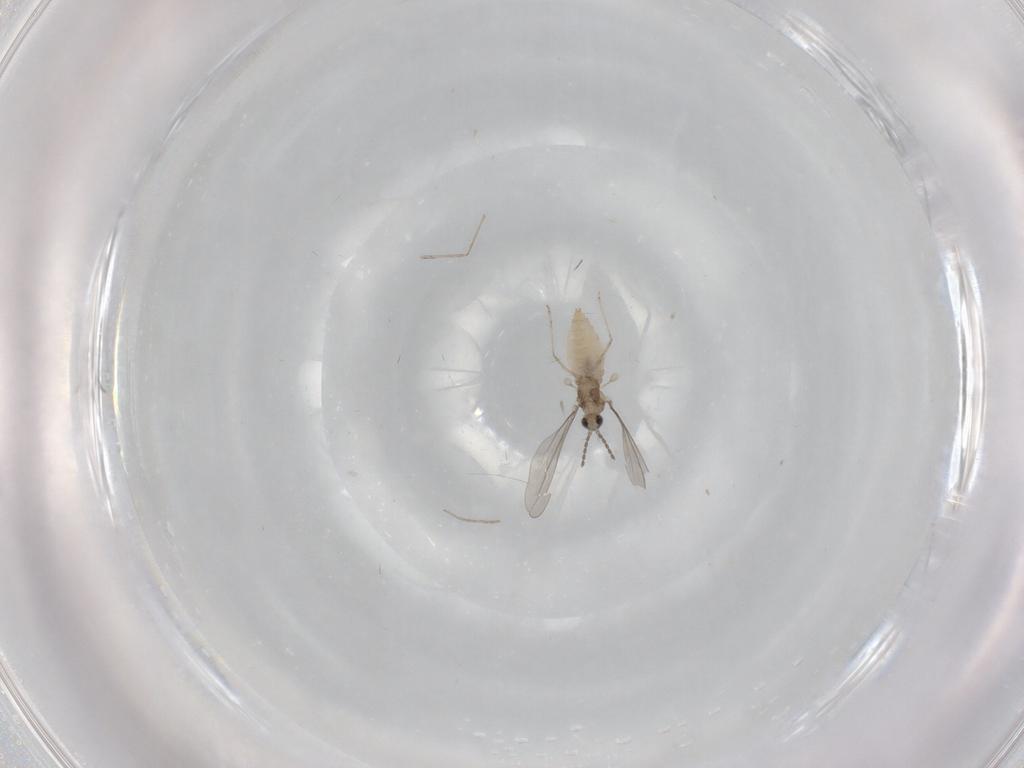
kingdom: Animalia
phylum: Arthropoda
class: Insecta
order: Diptera
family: Chironomidae
